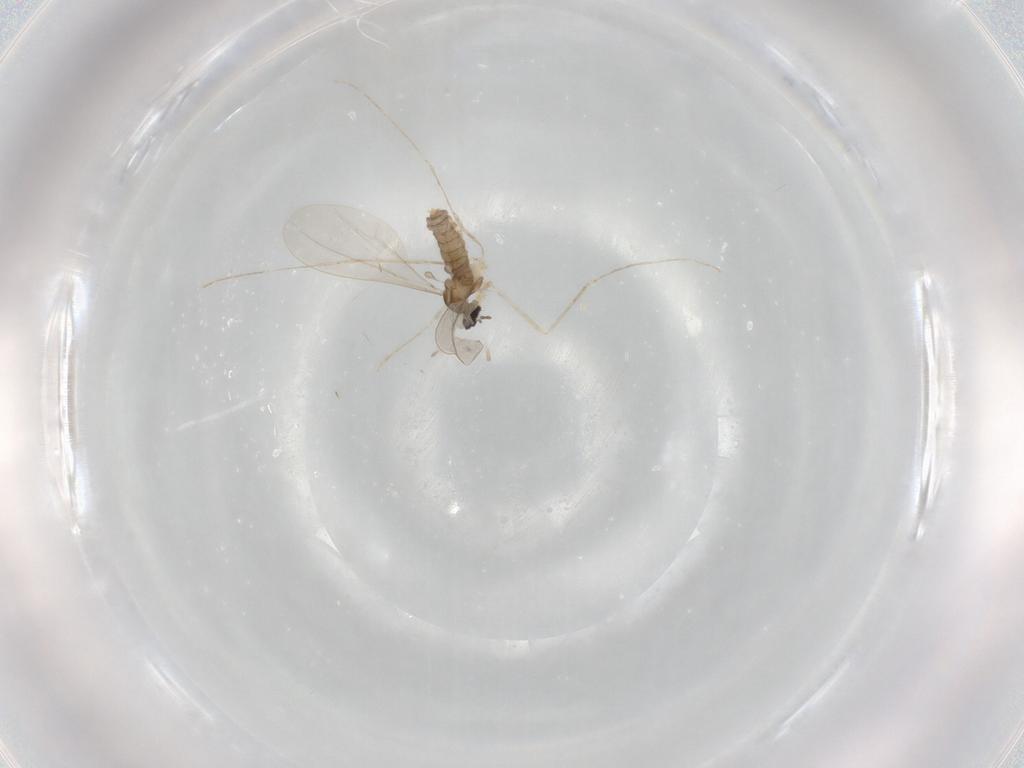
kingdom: Animalia
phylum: Arthropoda
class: Insecta
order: Diptera
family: Cecidomyiidae
